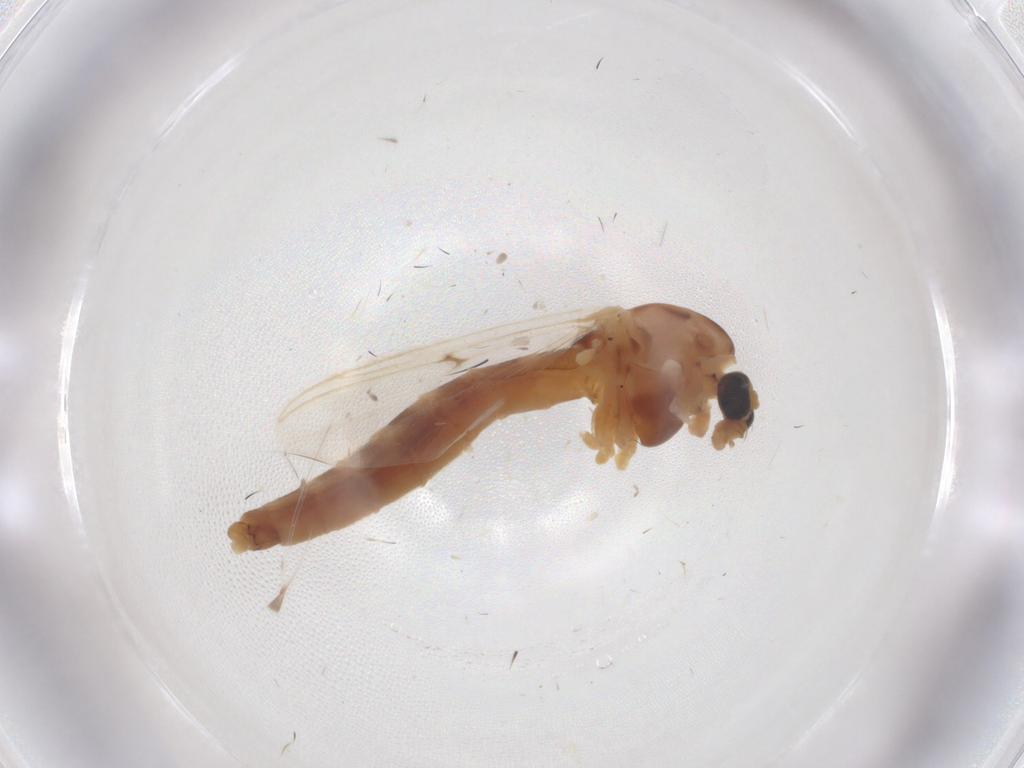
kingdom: Animalia
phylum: Arthropoda
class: Insecta
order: Diptera
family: Chironomidae
